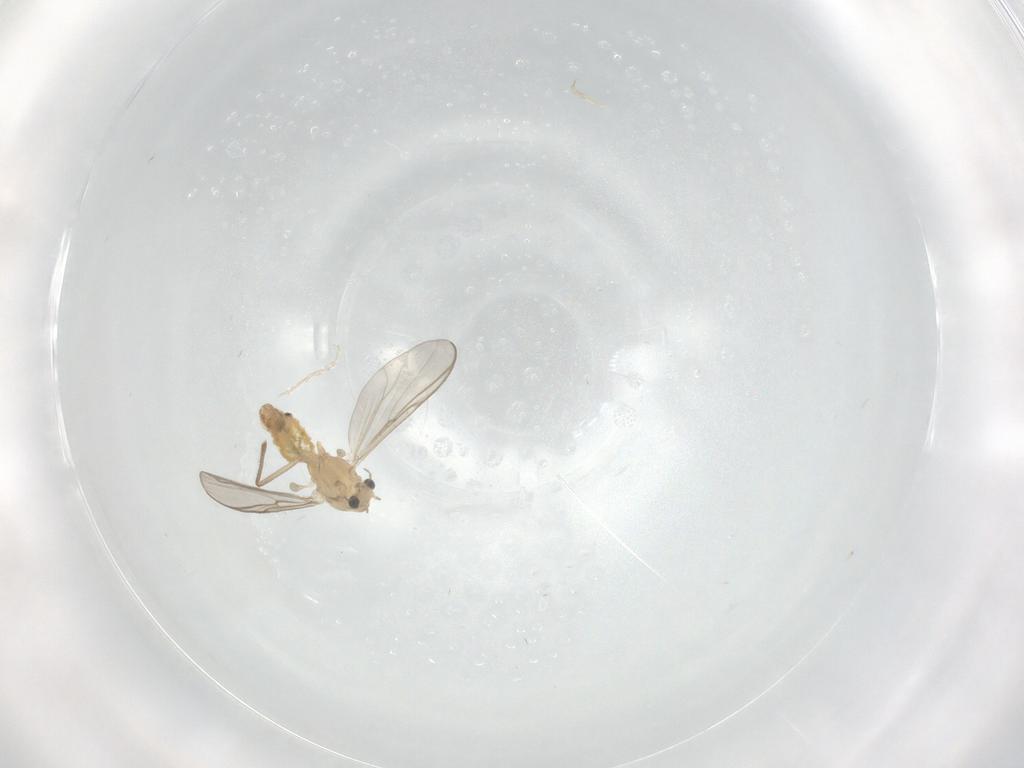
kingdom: Animalia
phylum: Arthropoda
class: Insecta
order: Diptera
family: Chironomidae
